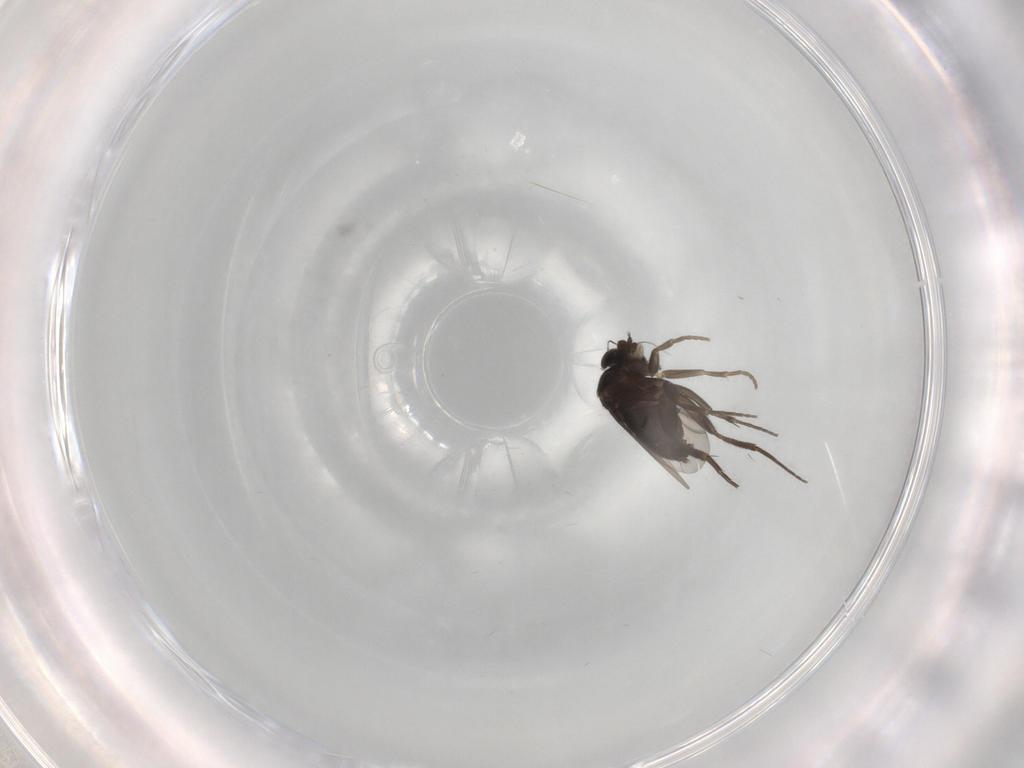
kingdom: Animalia
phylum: Arthropoda
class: Insecta
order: Diptera
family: Phoridae
